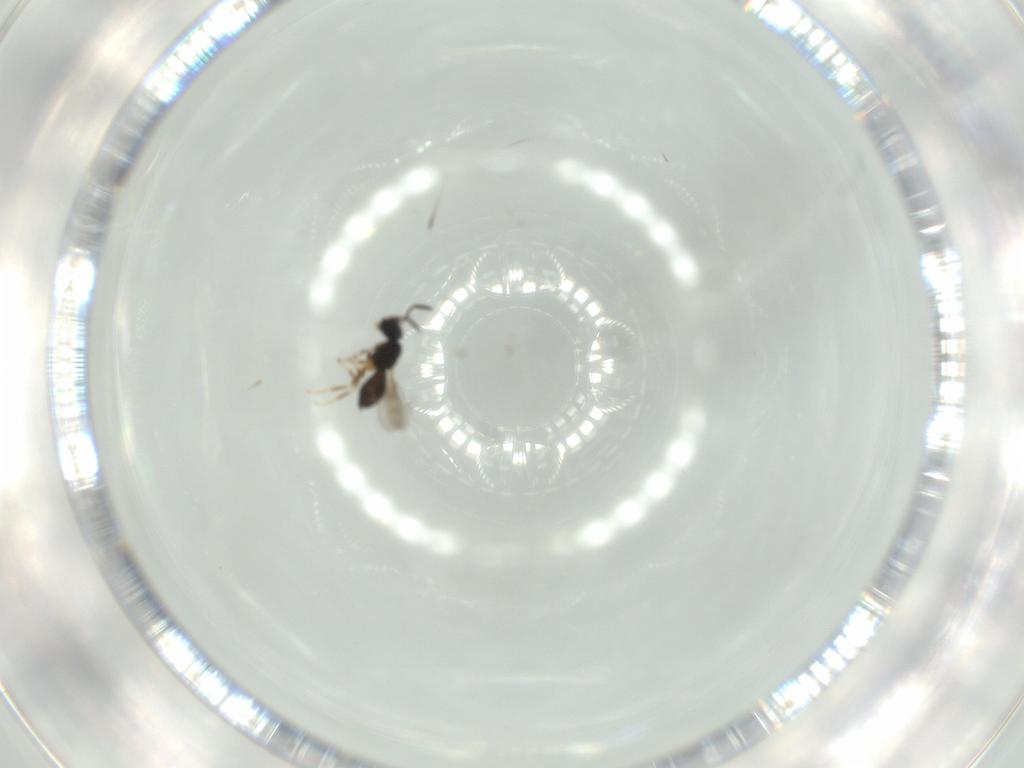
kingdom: Animalia
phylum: Arthropoda
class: Insecta
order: Hymenoptera
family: Scelionidae
